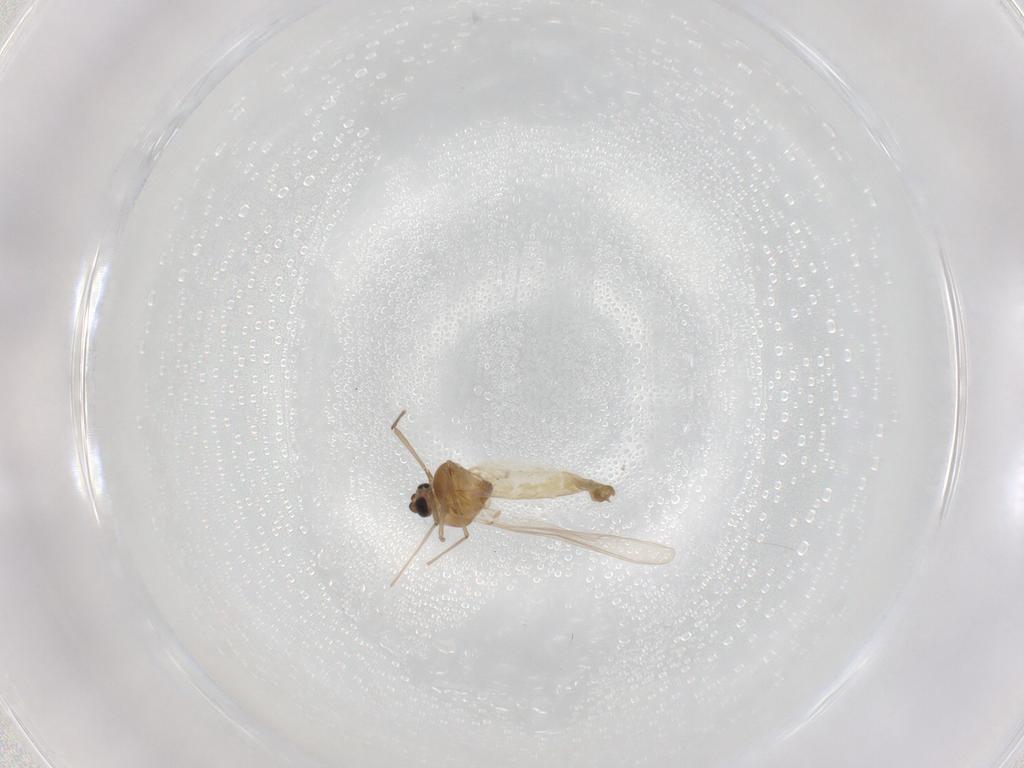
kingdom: Animalia
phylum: Arthropoda
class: Insecta
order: Diptera
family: Chironomidae
